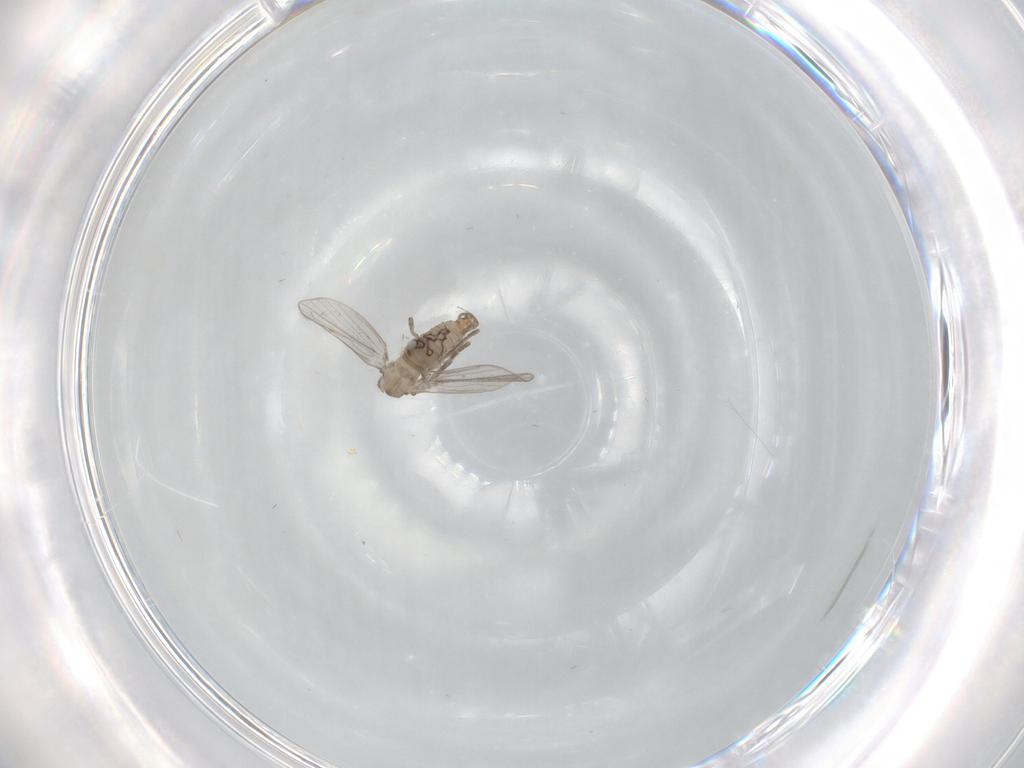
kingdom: Animalia
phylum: Arthropoda
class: Insecta
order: Diptera
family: Psychodidae
